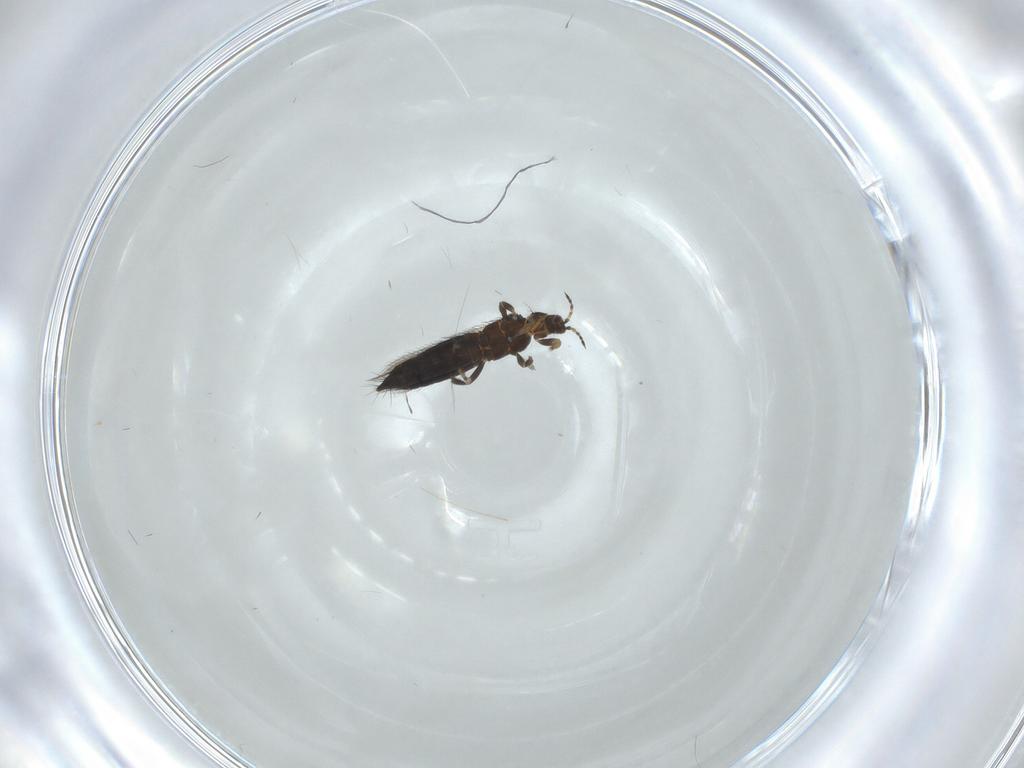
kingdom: Animalia
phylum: Arthropoda
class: Insecta
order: Thysanoptera
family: Thripidae
